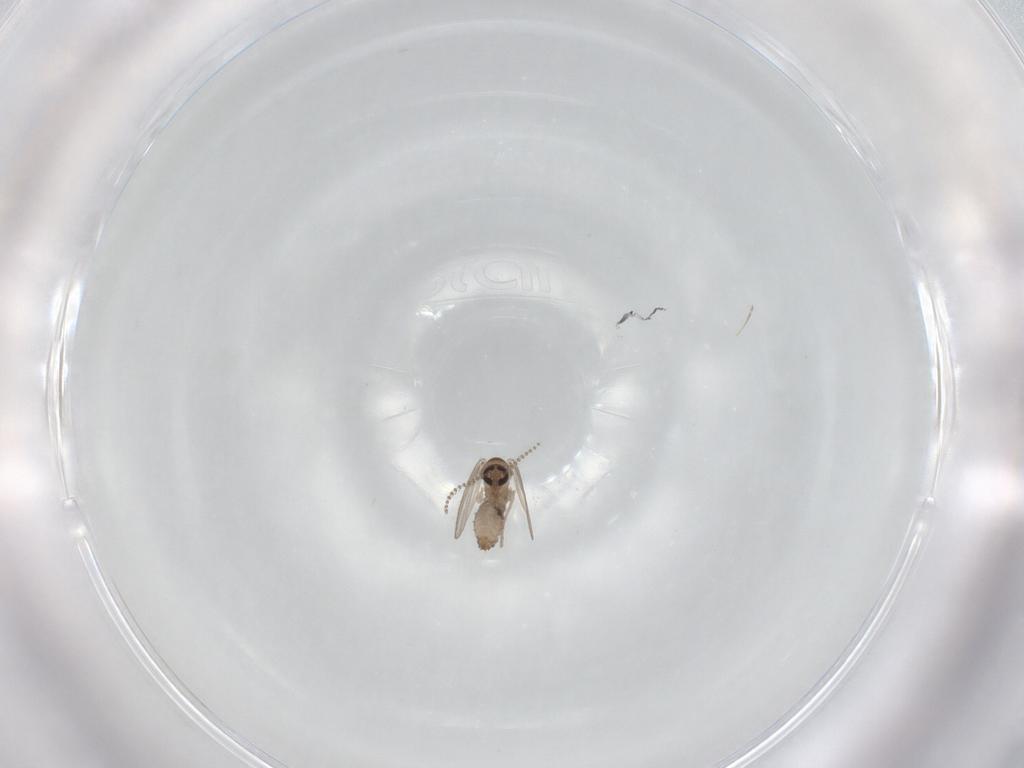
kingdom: Animalia
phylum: Arthropoda
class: Insecta
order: Diptera
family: Psychodidae
